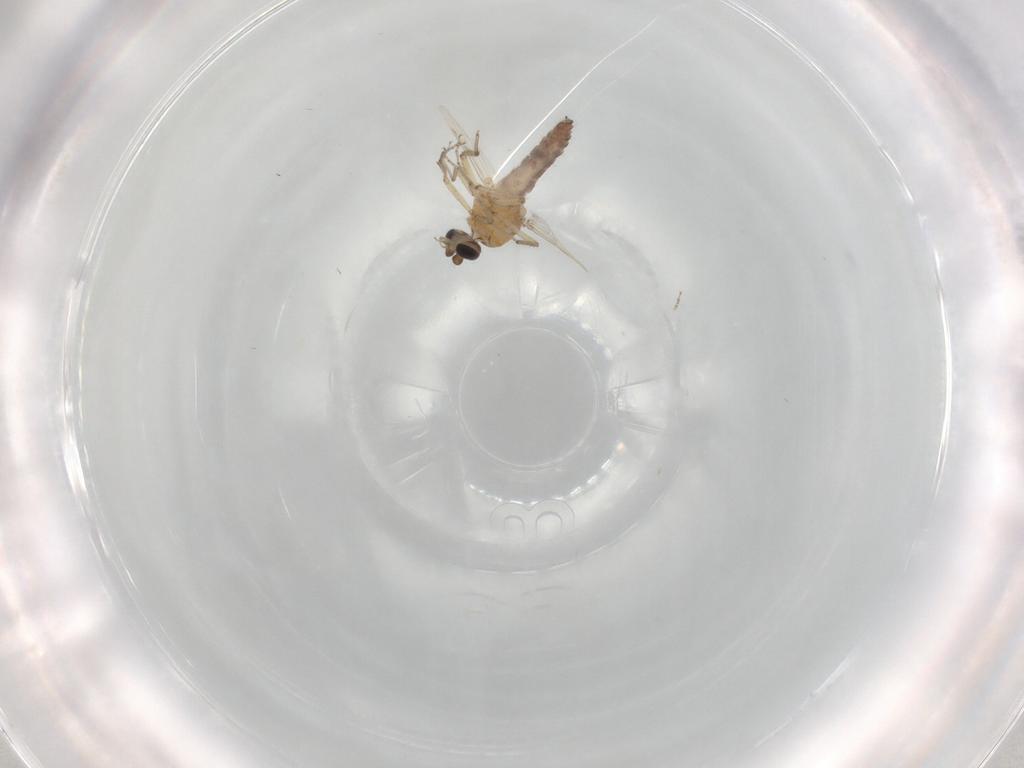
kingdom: Animalia
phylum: Arthropoda
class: Insecta
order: Diptera
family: Ceratopogonidae
